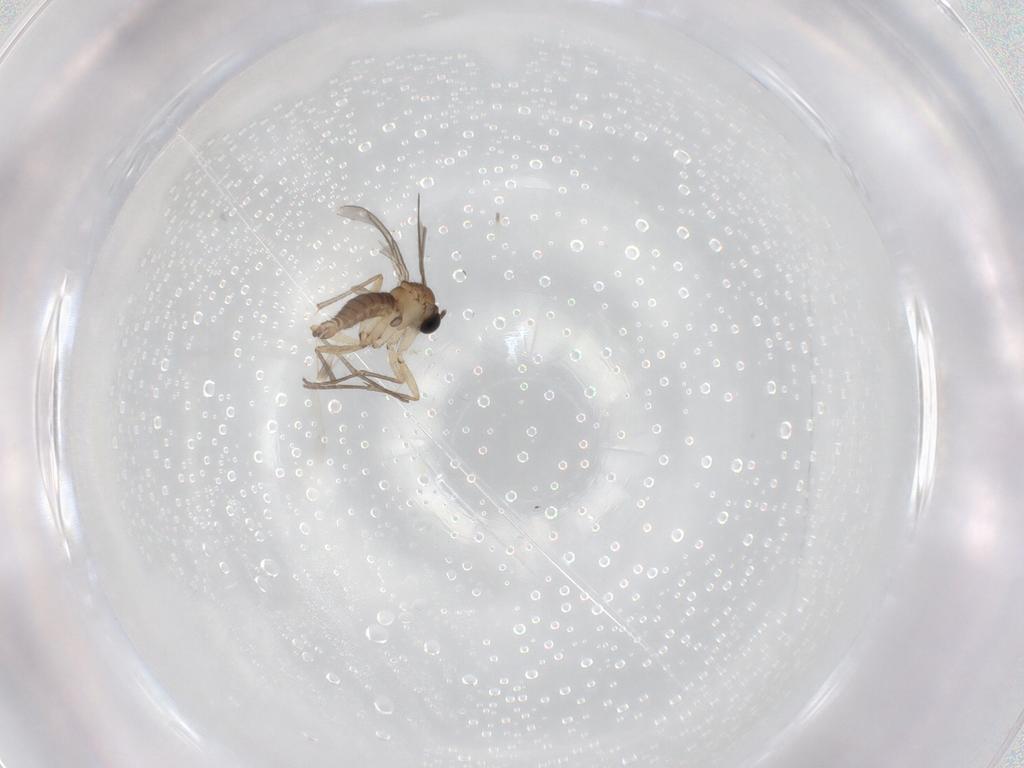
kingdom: Animalia
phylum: Arthropoda
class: Insecta
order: Diptera
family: Sciaridae
